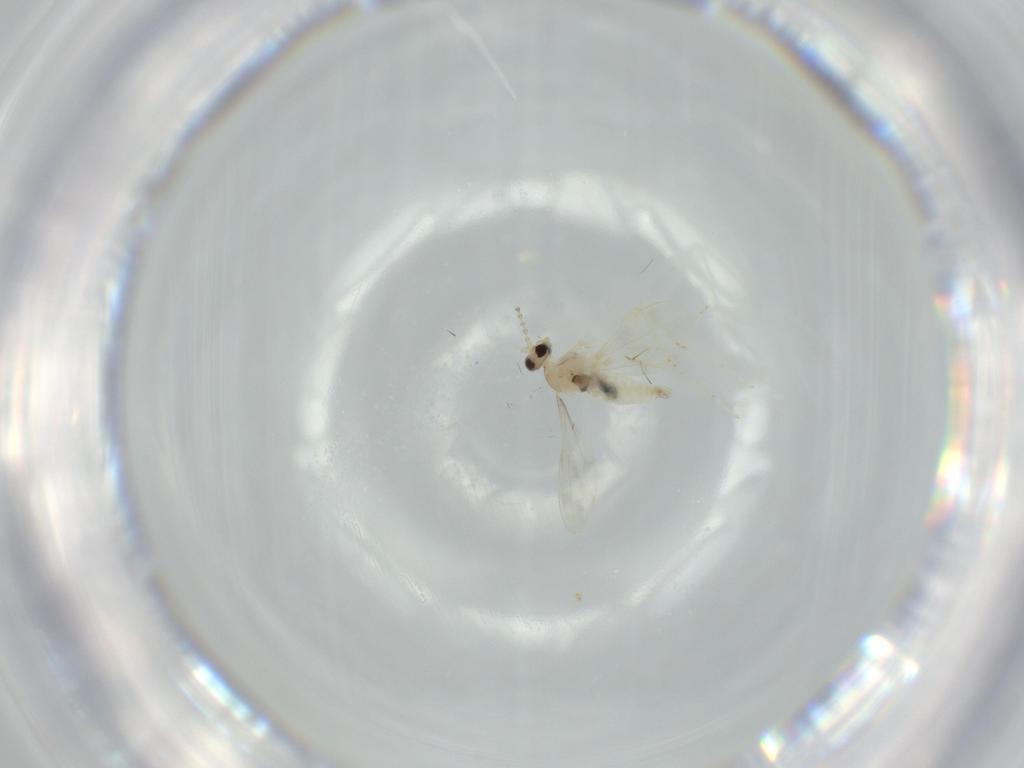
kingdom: Animalia
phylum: Arthropoda
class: Insecta
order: Diptera
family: Cecidomyiidae
